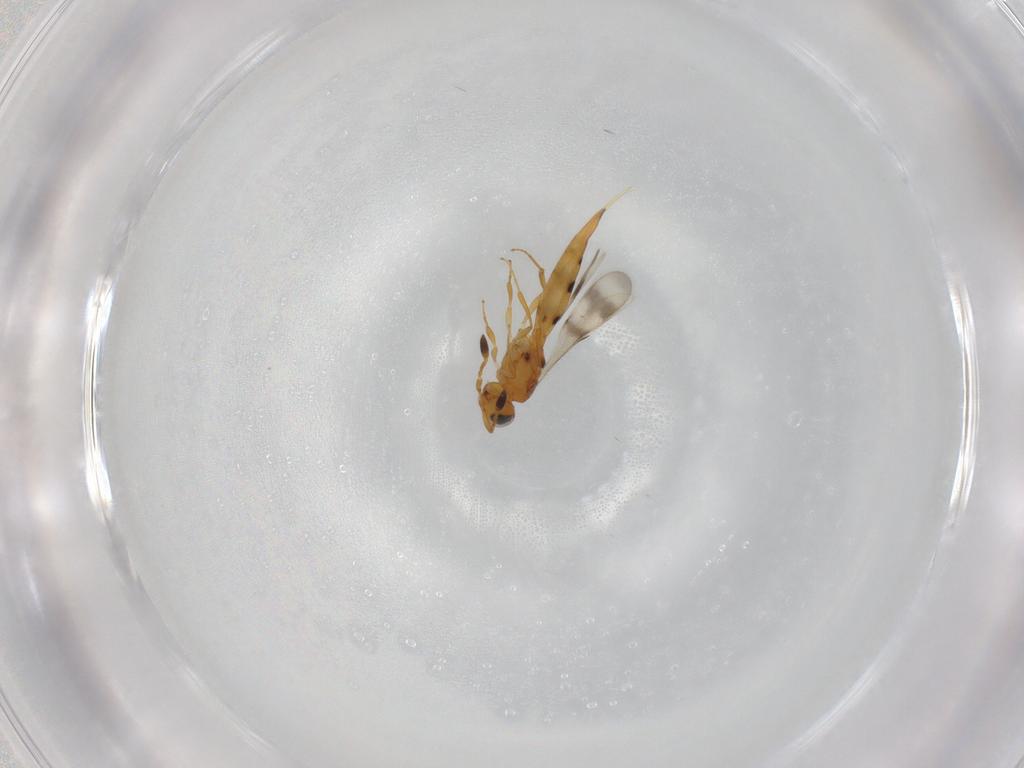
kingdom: Animalia
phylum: Arthropoda
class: Insecta
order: Hymenoptera
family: Scelionidae
